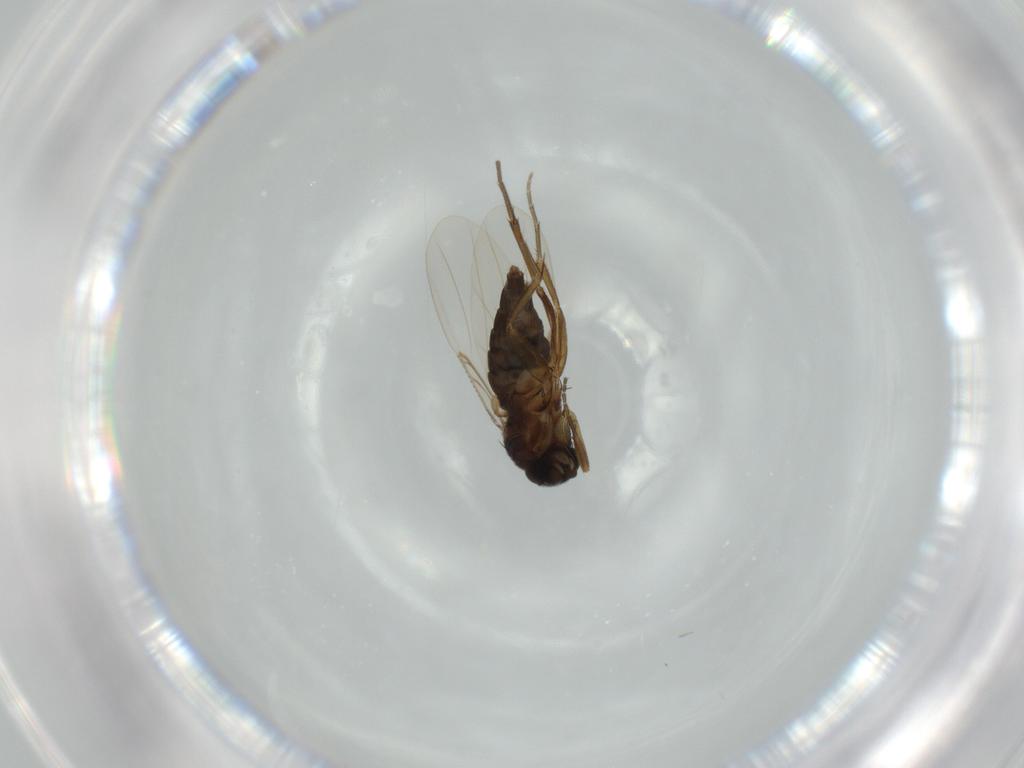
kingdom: Animalia
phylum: Arthropoda
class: Insecta
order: Diptera
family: Phoridae
